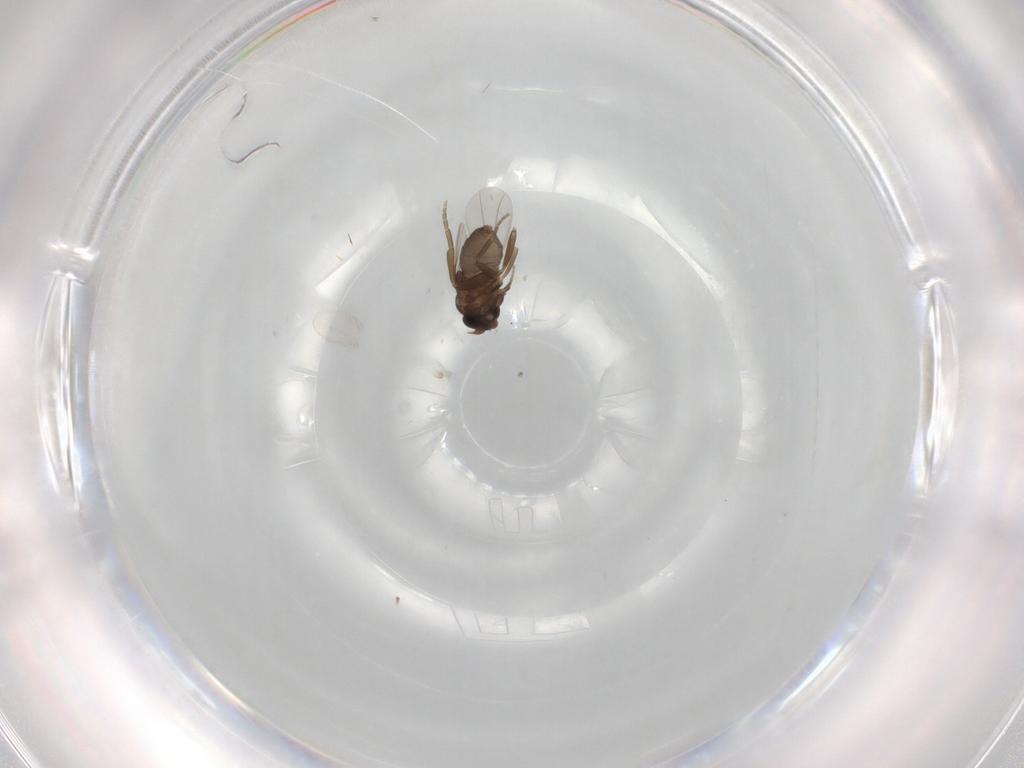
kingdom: Animalia
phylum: Arthropoda
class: Insecta
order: Diptera
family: Cecidomyiidae
